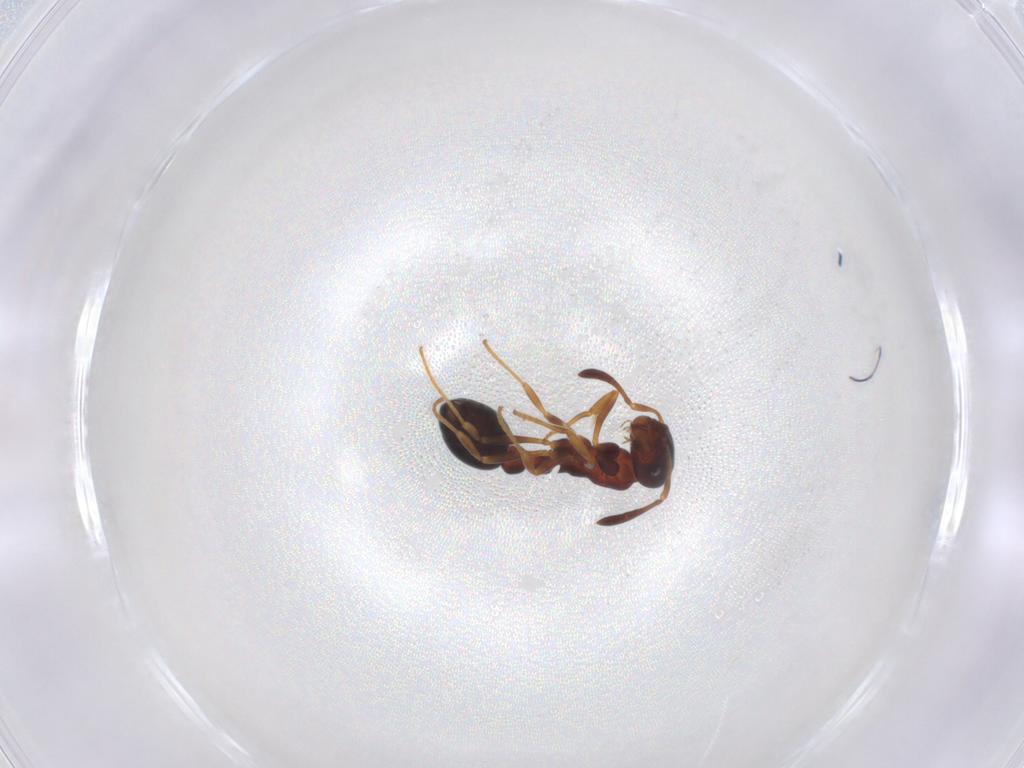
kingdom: Animalia
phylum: Arthropoda
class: Insecta
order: Hymenoptera
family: Formicidae
